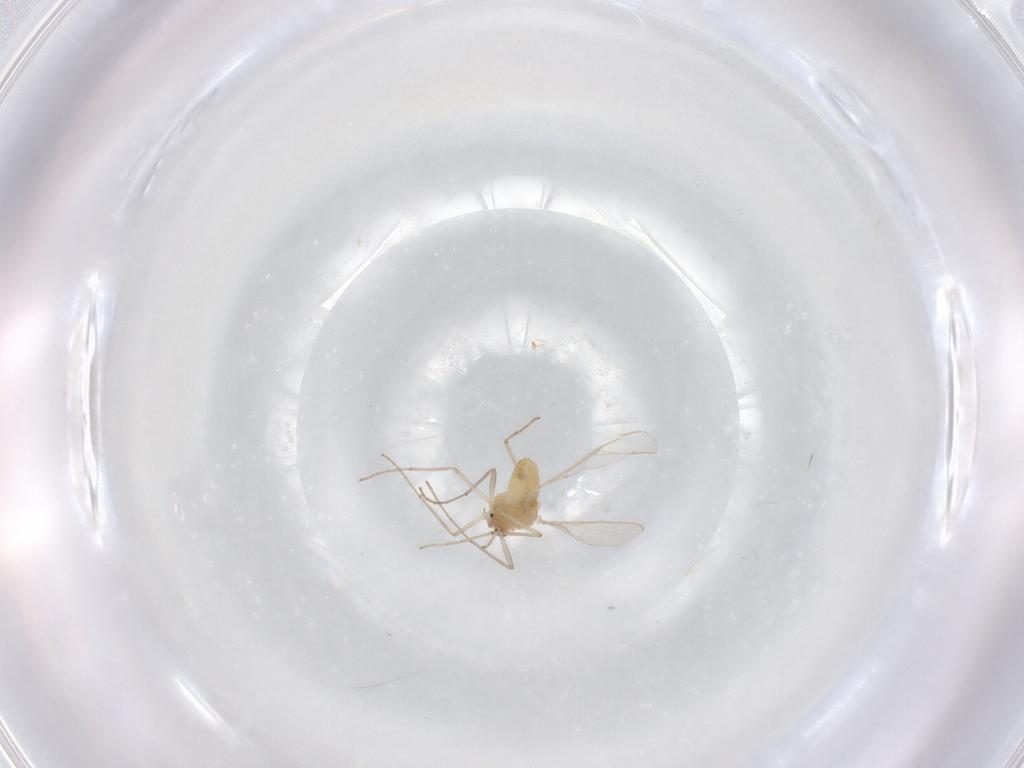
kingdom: Animalia
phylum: Arthropoda
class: Insecta
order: Diptera
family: Chironomidae
